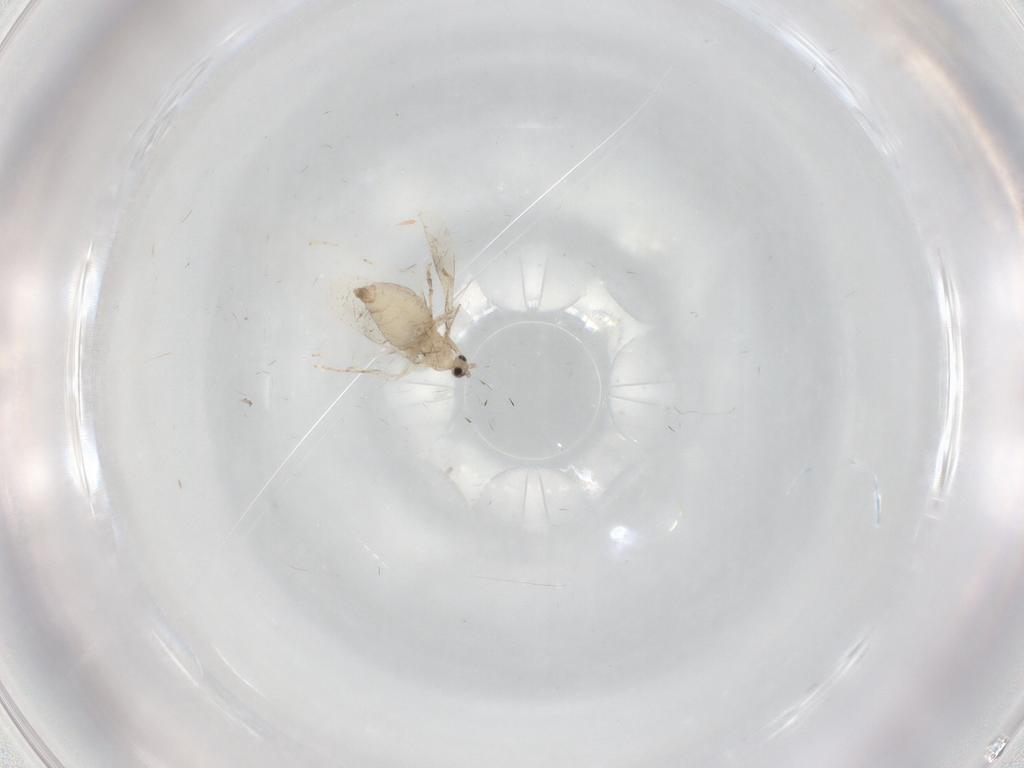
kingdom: Animalia
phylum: Arthropoda
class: Insecta
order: Diptera
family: Cecidomyiidae
